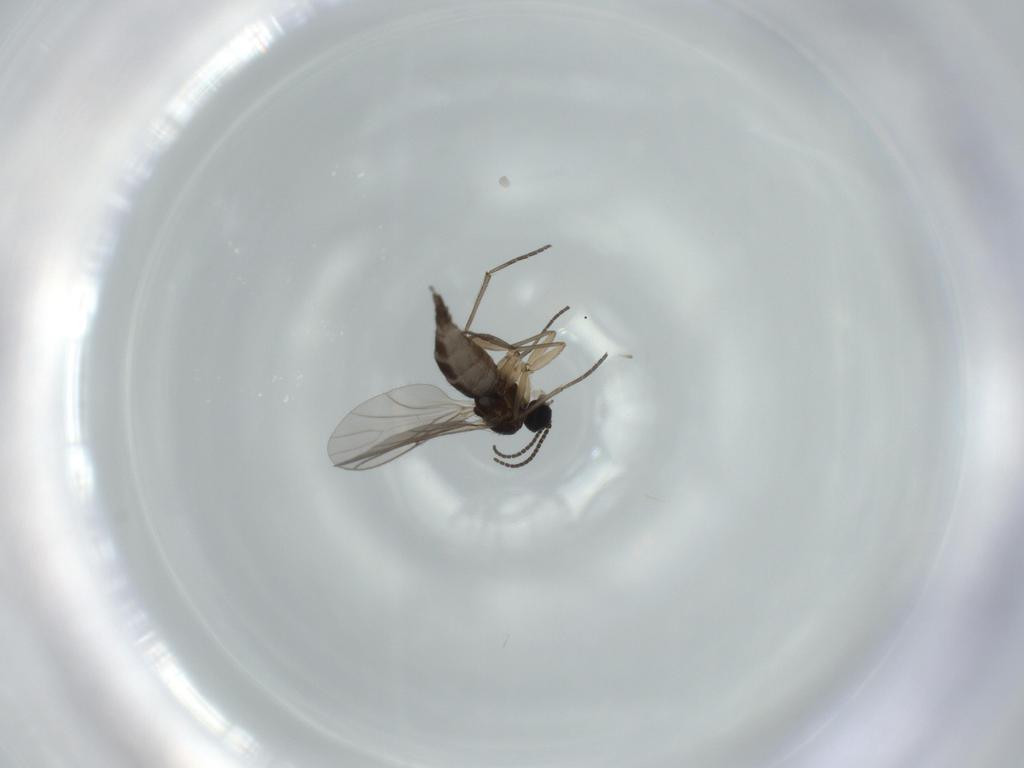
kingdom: Animalia
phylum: Arthropoda
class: Insecta
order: Diptera
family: Sciaridae
